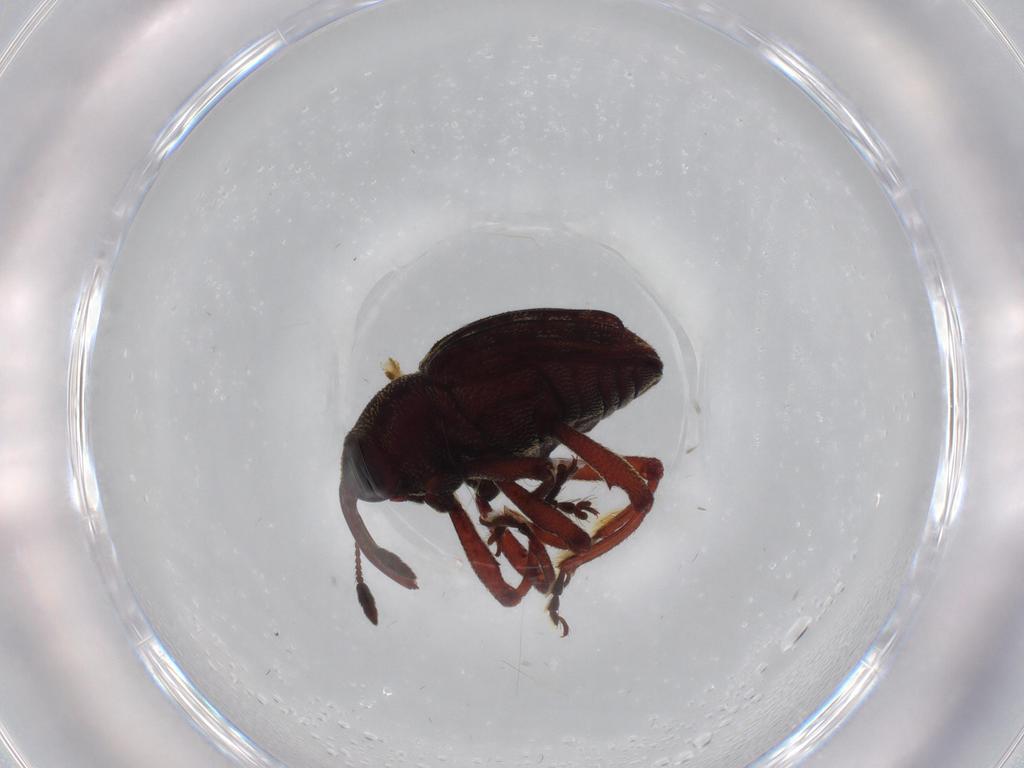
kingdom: Animalia
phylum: Arthropoda
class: Insecta
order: Coleoptera
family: Curculionidae
